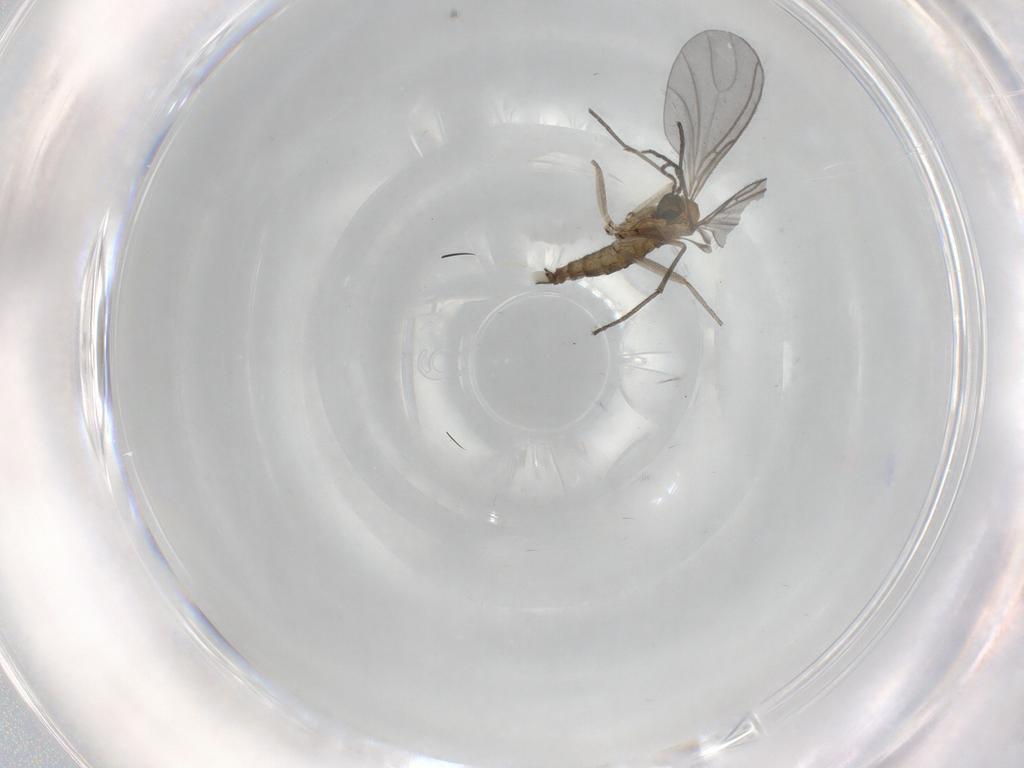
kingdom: Animalia
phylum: Arthropoda
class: Insecta
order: Diptera
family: Sciaridae
